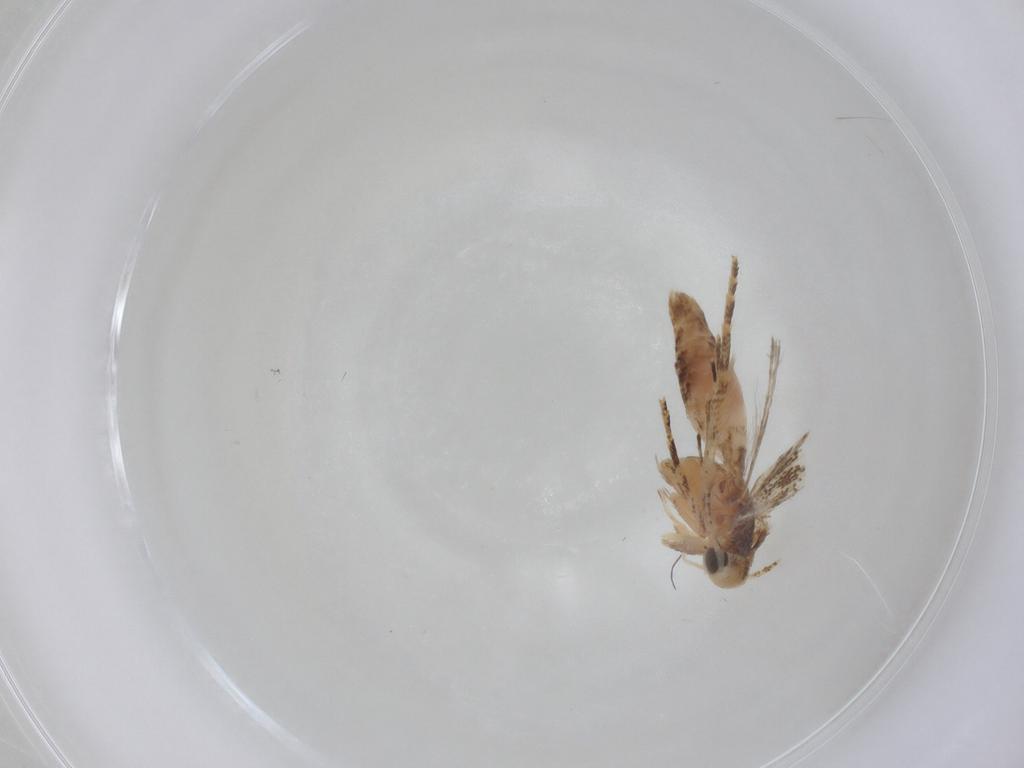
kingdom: Animalia
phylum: Arthropoda
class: Insecta
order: Lepidoptera
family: Gelechiidae
